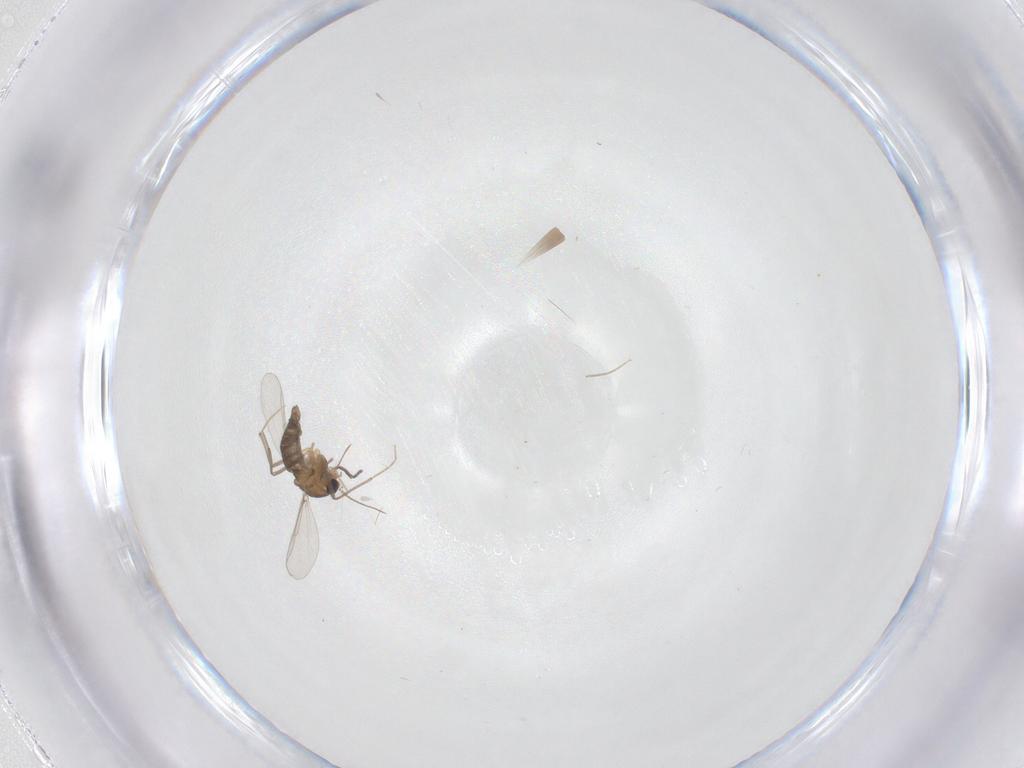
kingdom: Animalia
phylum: Arthropoda
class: Insecta
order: Diptera
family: Chironomidae
